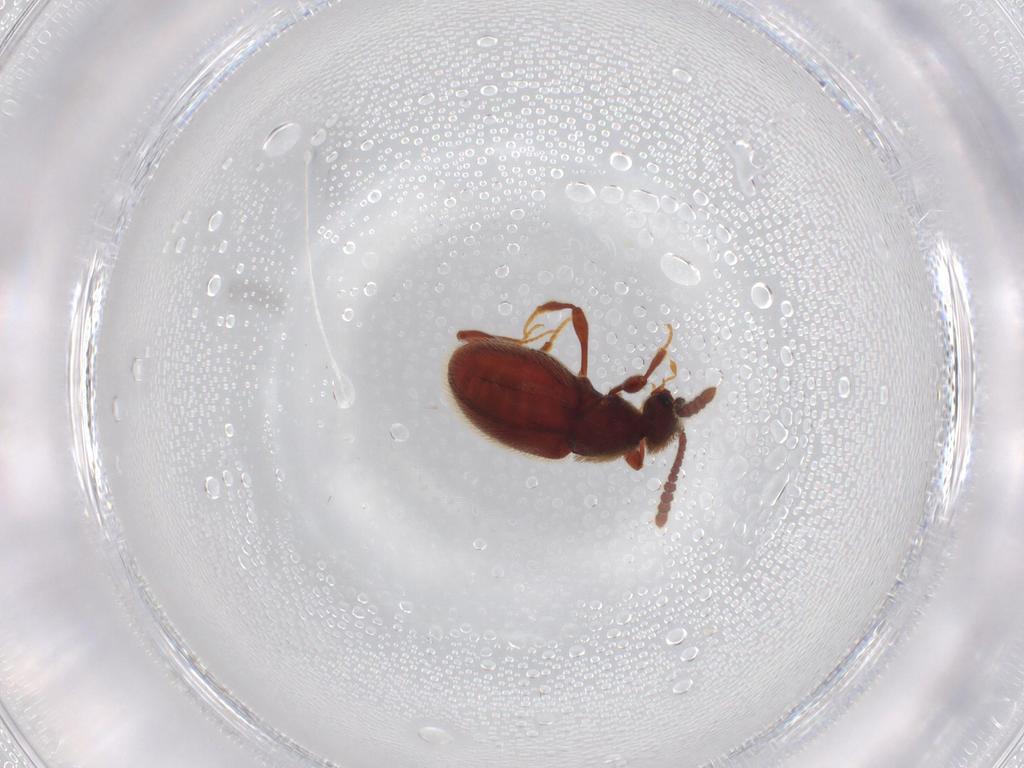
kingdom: Animalia
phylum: Arthropoda
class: Insecta
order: Coleoptera
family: Staphylinidae
